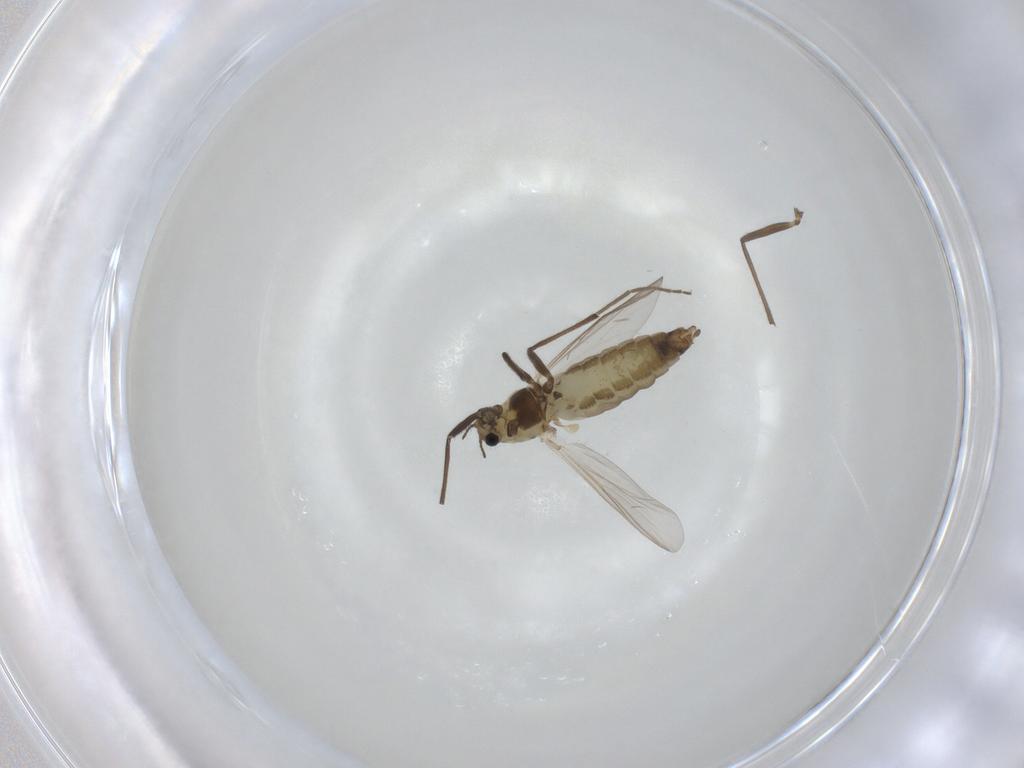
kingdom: Animalia
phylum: Arthropoda
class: Insecta
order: Diptera
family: Chironomidae
